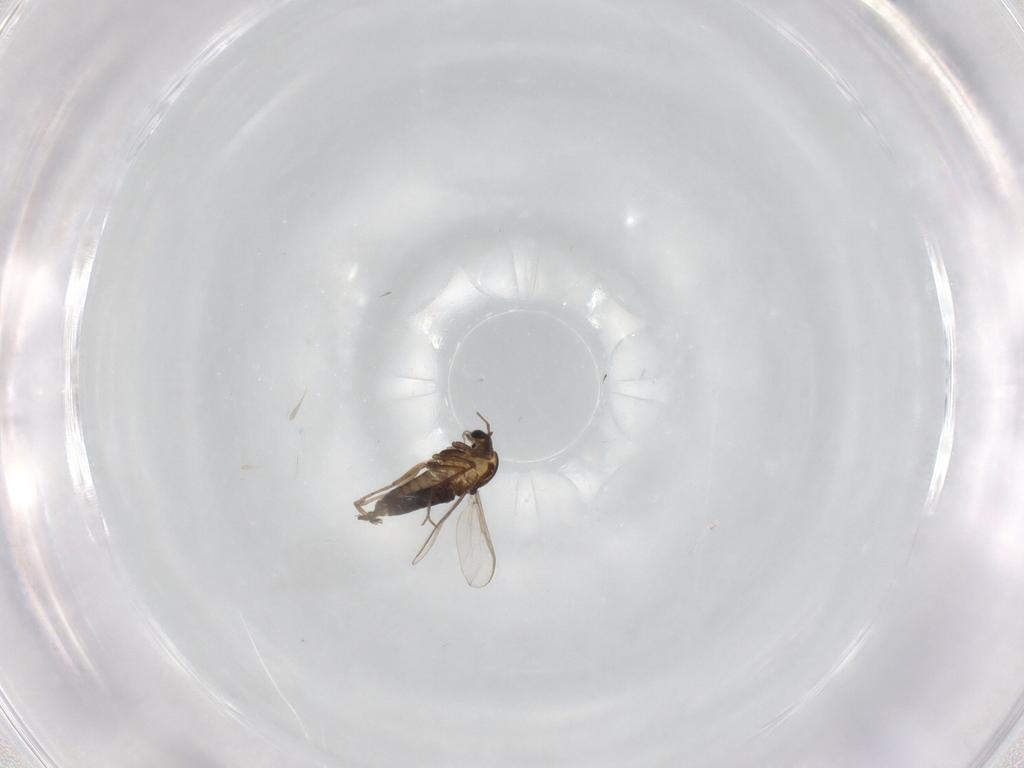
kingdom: Animalia
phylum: Arthropoda
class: Insecta
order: Diptera
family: Chironomidae
